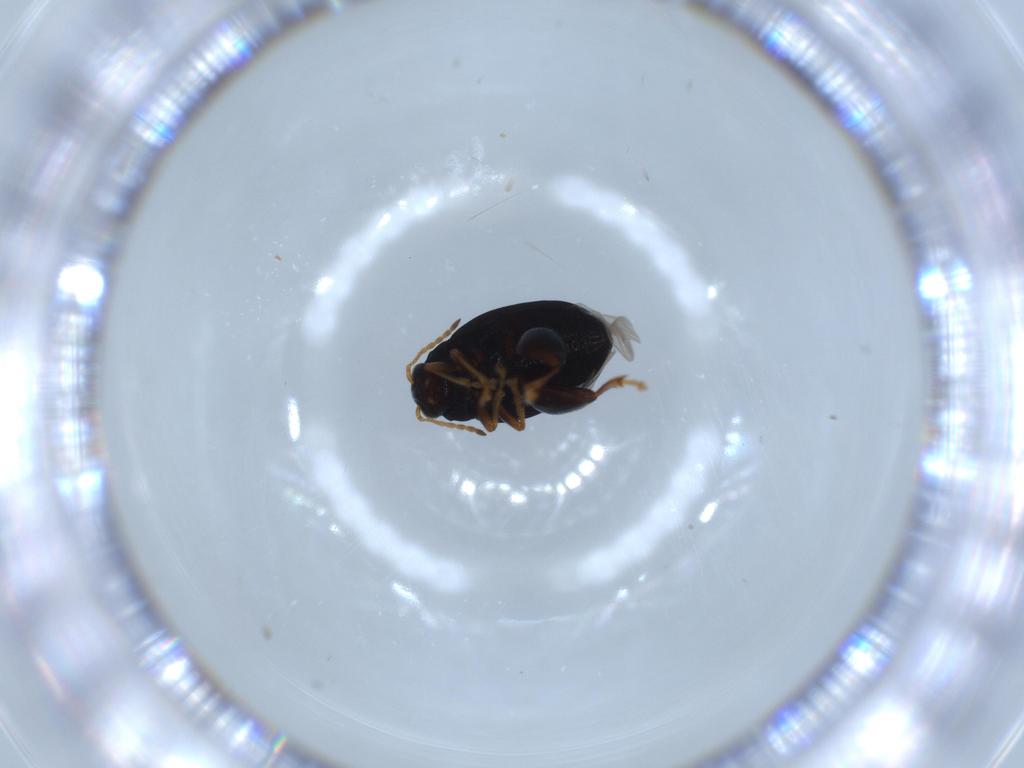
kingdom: Animalia
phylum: Arthropoda
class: Insecta
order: Coleoptera
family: Chrysomelidae
